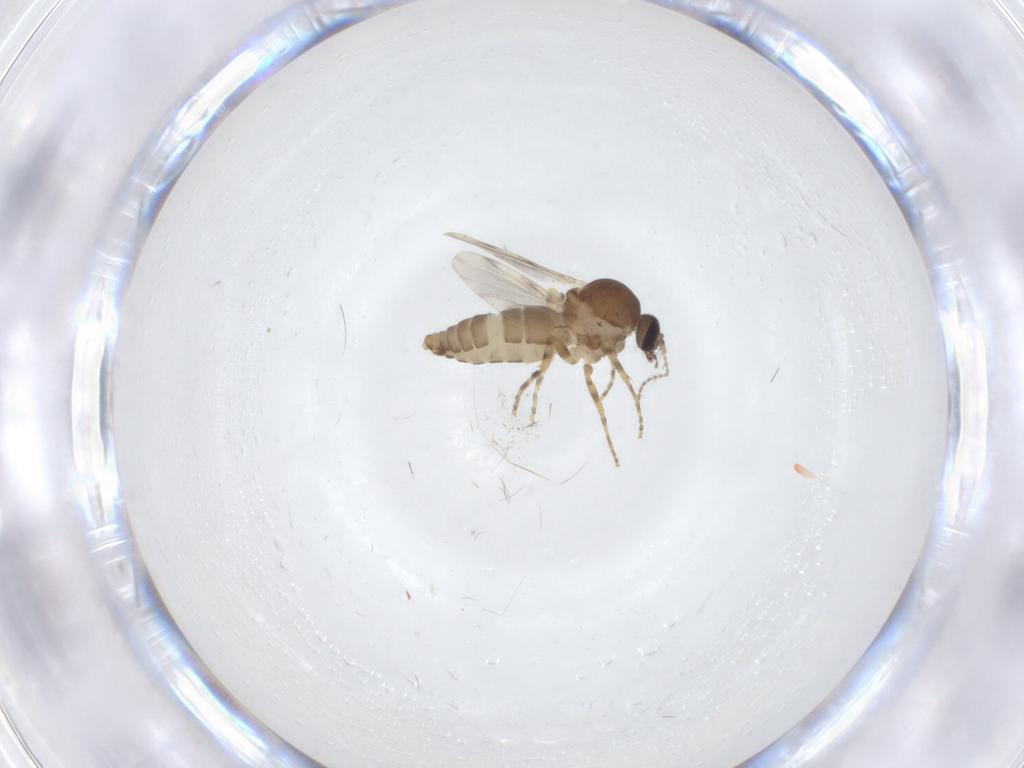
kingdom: Animalia
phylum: Arthropoda
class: Insecta
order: Diptera
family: Ceratopogonidae
